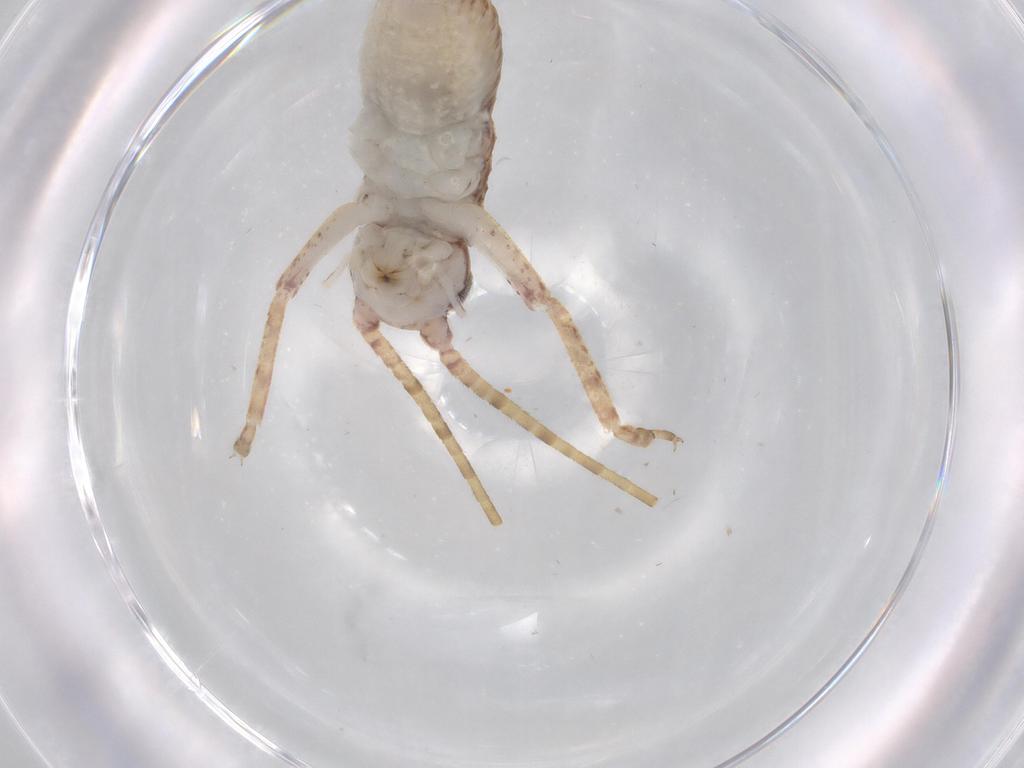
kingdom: Animalia
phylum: Arthropoda
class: Insecta
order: Orthoptera
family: Gryllidae
